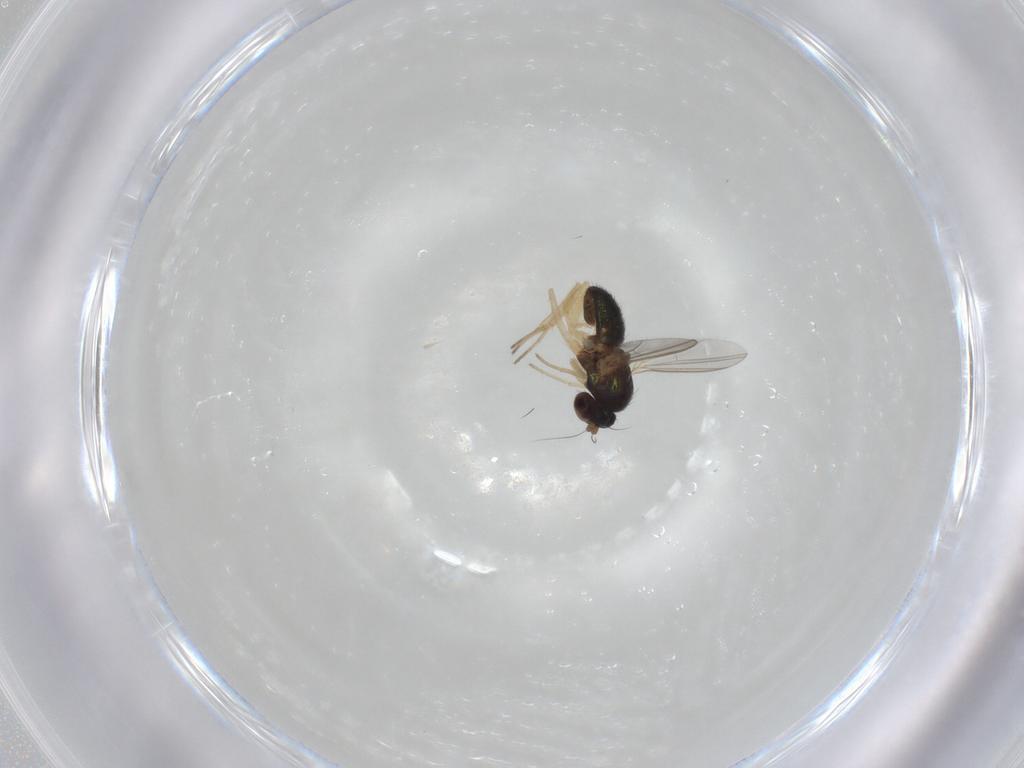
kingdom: Animalia
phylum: Arthropoda
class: Insecta
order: Diptera
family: Dolichopodidae
